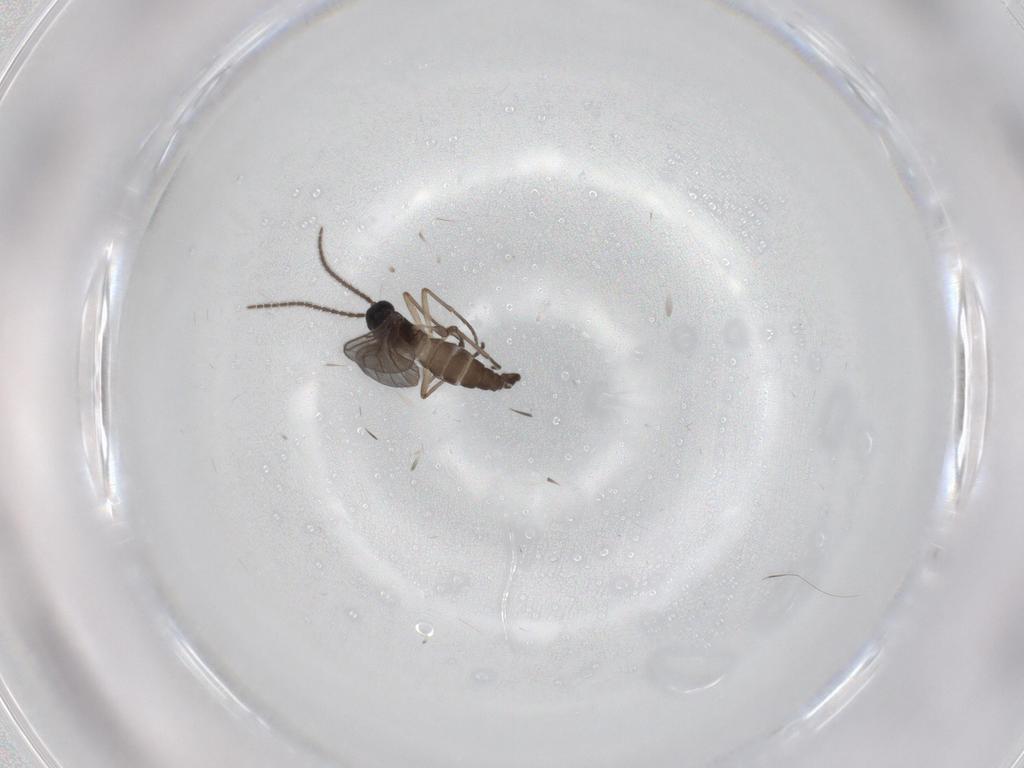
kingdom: Animalia
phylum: Arthropoda
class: Insecta
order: Diptera
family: Sciaridae
